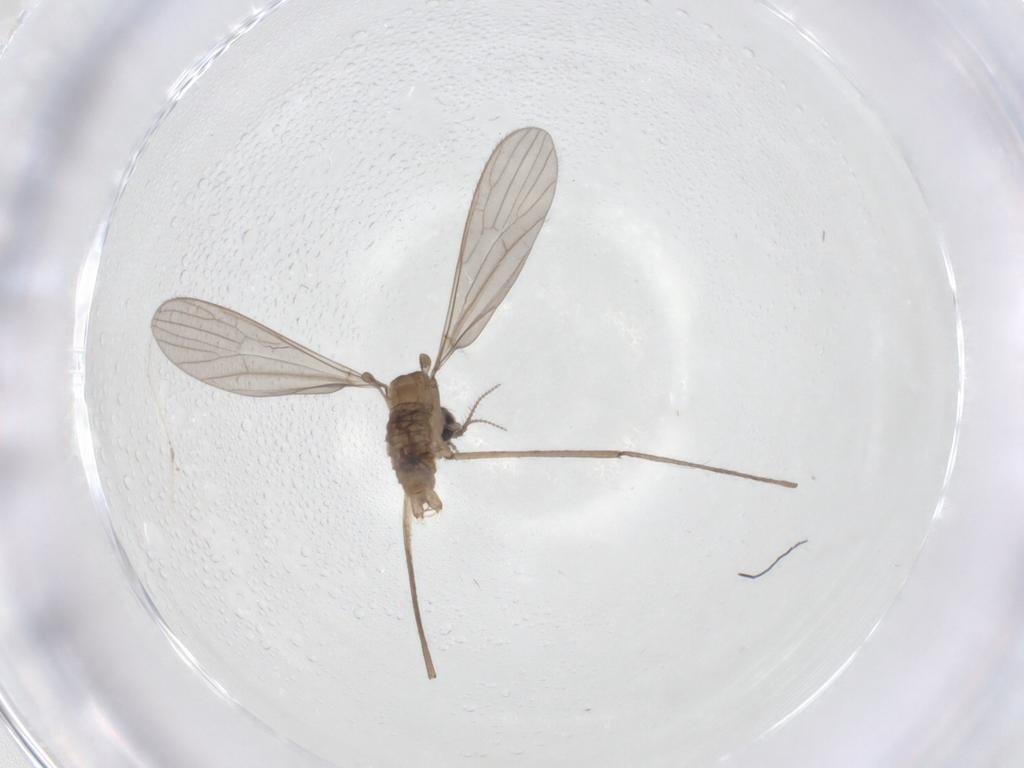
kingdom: Animalia
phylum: Arthropoda
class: Insecta
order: Diptera
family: Limoniidae
